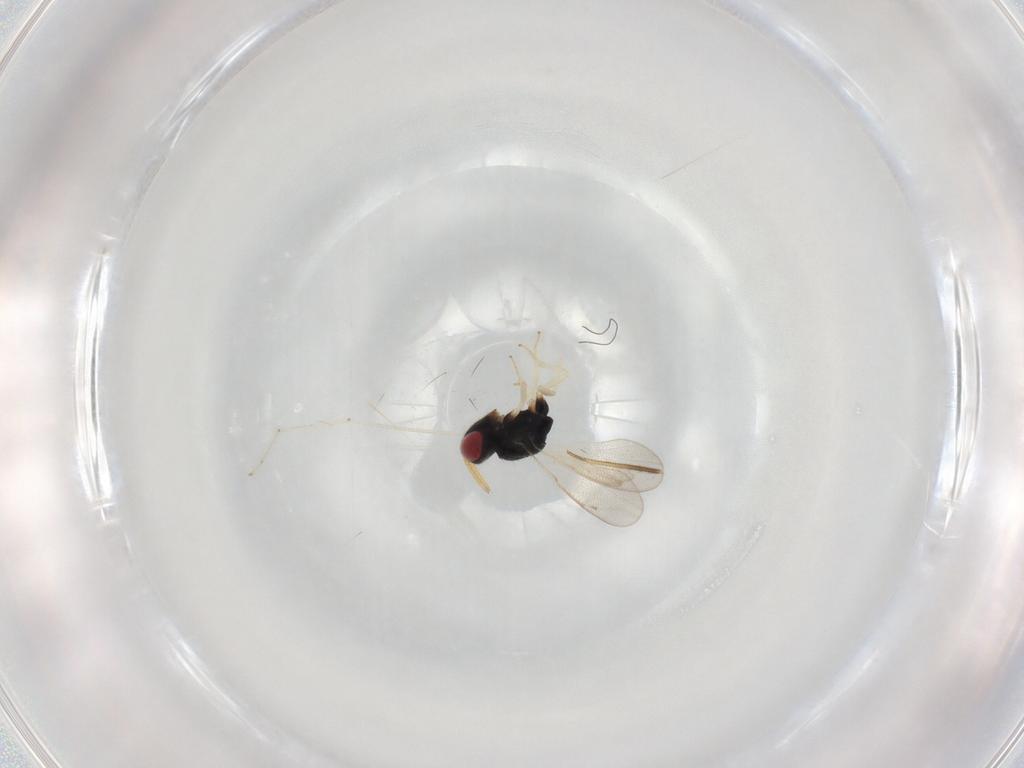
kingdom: Animalia
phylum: Arthropoda
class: Insecta
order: Hymenoptera
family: Pteromalidae
